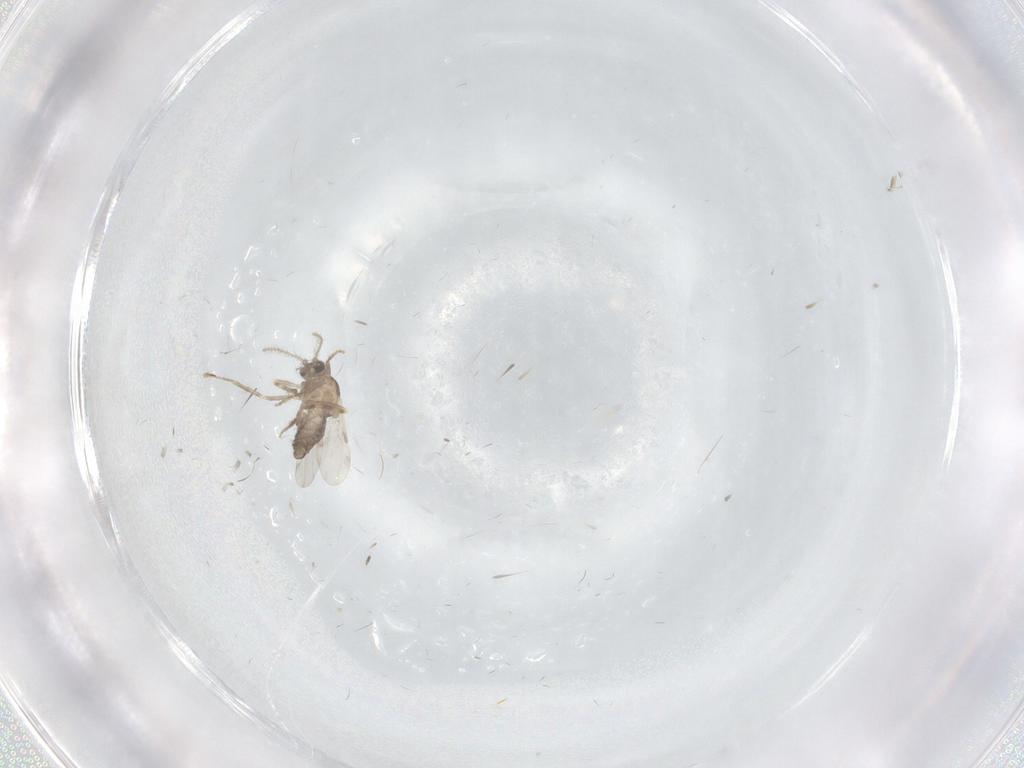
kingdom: Animalia
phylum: Arthropoda
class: Insecta
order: Diptera
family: Ceratopogonidae
